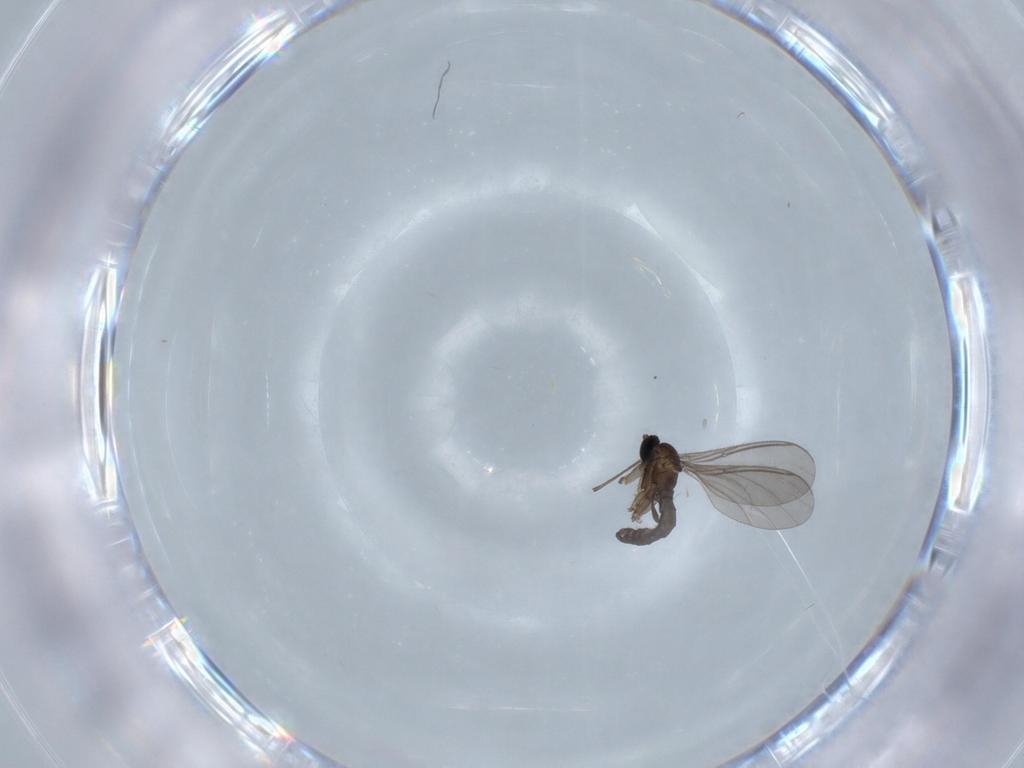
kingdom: Animalia
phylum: Arthropoda
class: Insecta
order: Diptera
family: Sciaridae
